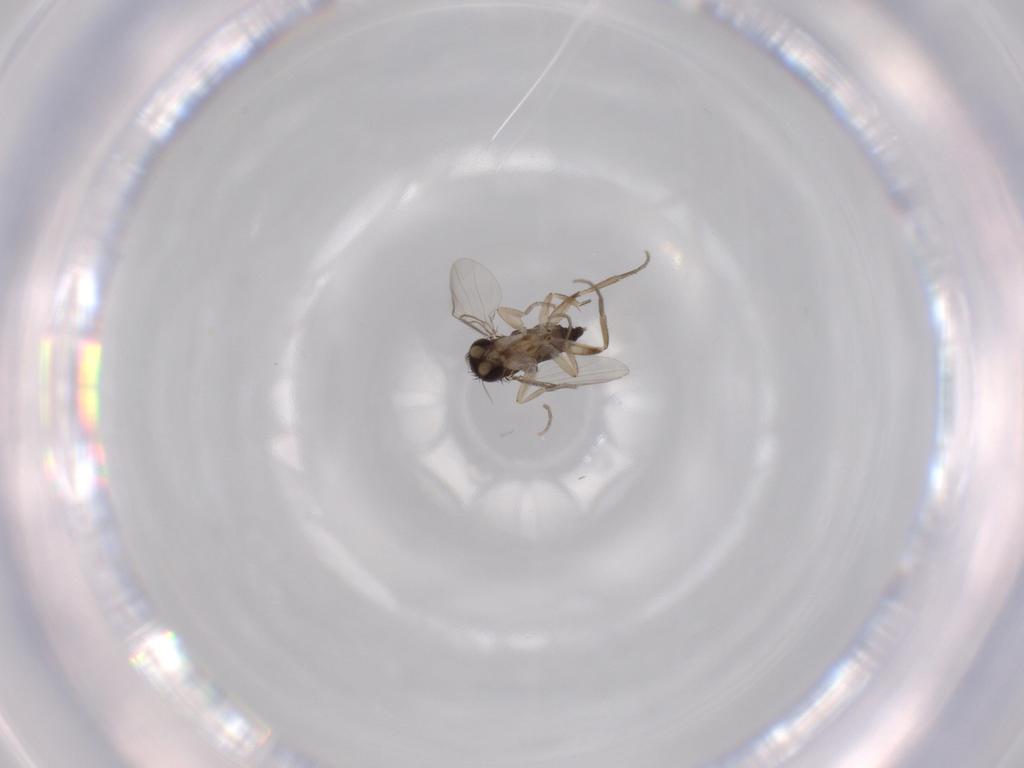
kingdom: Animalia
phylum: Arthropoda
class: Insecta
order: Diptera
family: Phoridae
